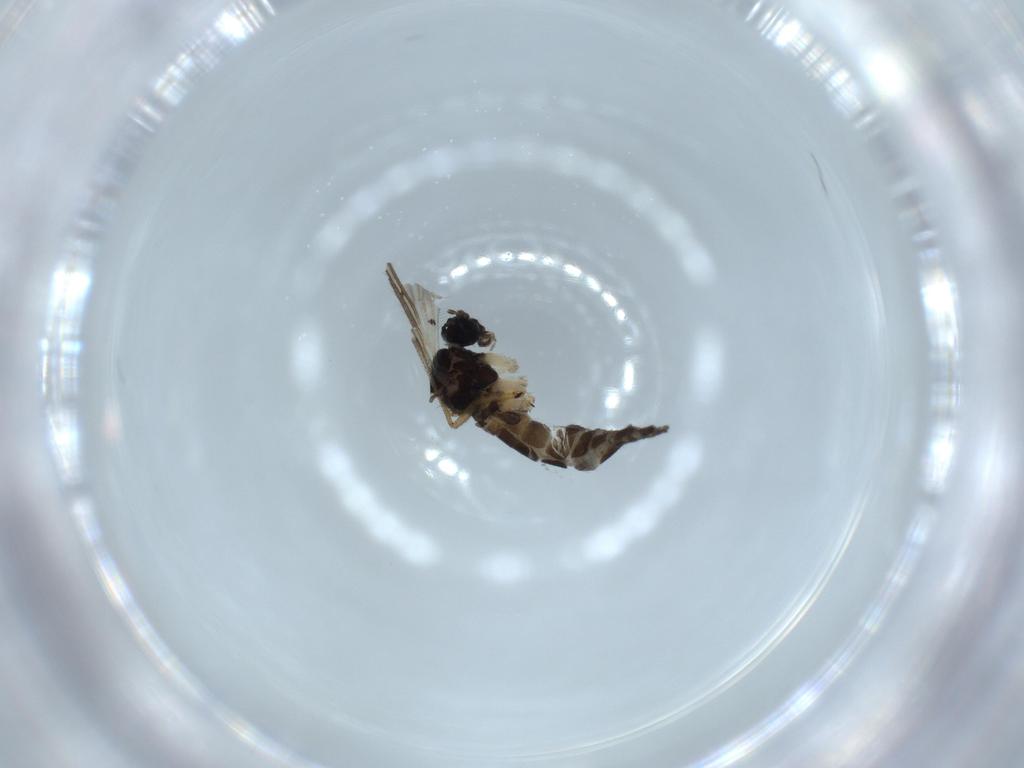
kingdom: Animalia
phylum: Arthropoda
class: Insecta
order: Diptera
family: Sciaridae
